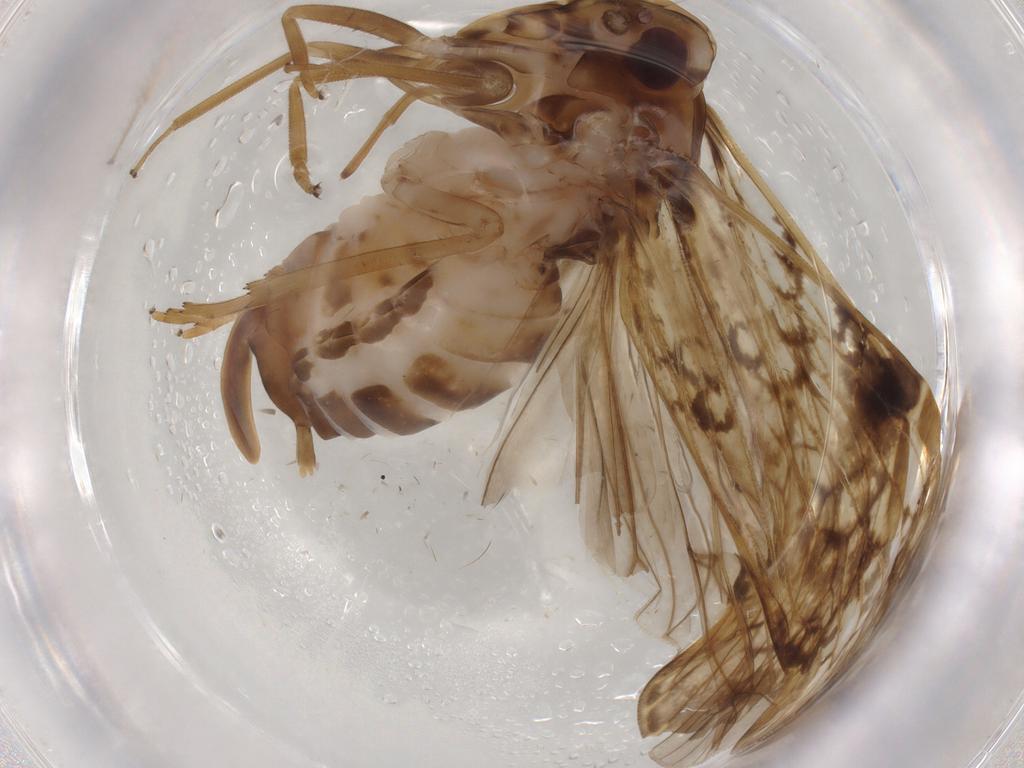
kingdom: Animalia
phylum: Arthropoda
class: Insecta
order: Hemiptera
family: Cixiidae
